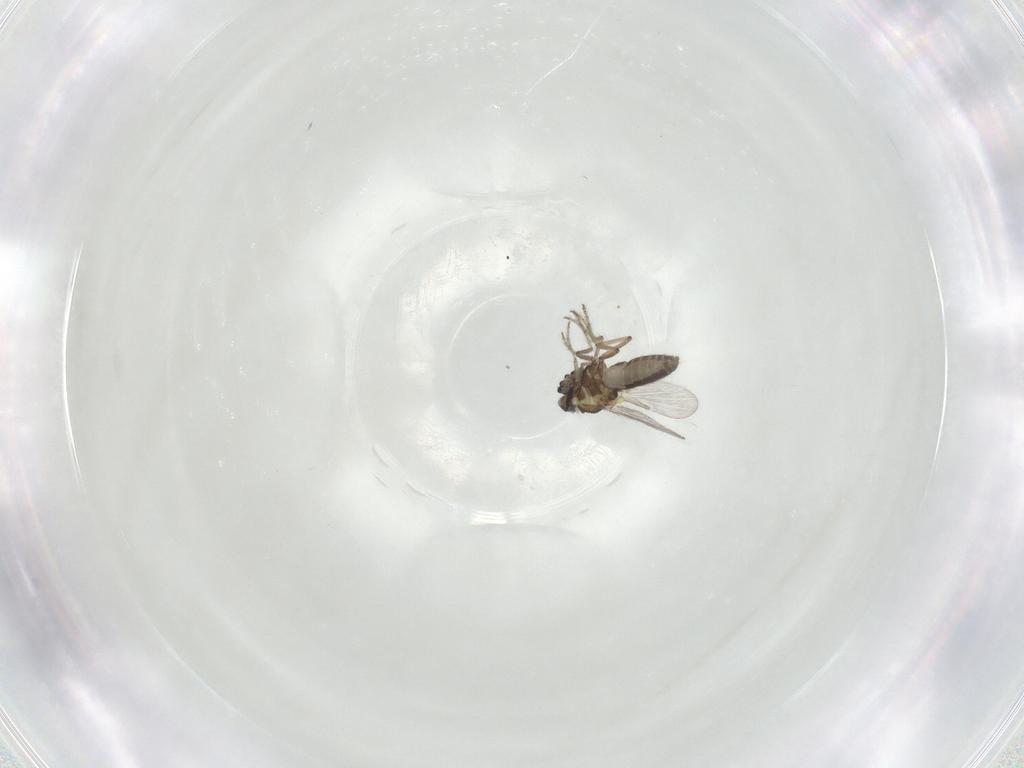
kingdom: Animalia
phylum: Arthropoda
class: Insecta
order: Diptera
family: Ceratopogonidae
